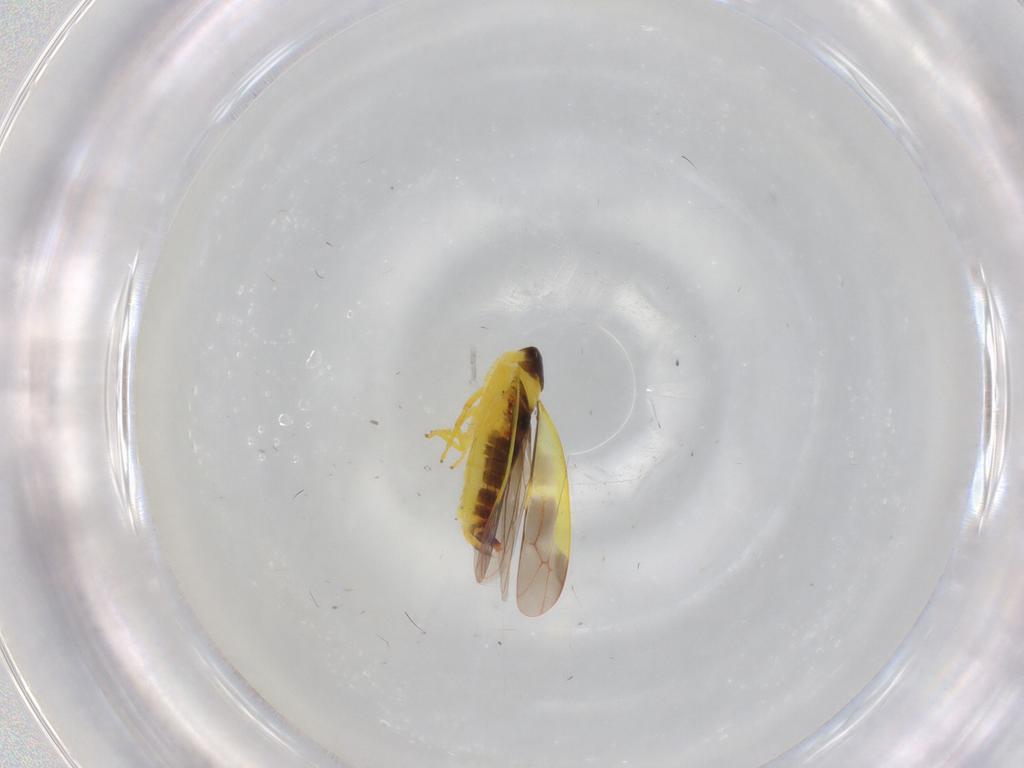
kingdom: Animalia
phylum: Arthropoda
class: Insecta
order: Hemiptera
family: Cicadellidae
